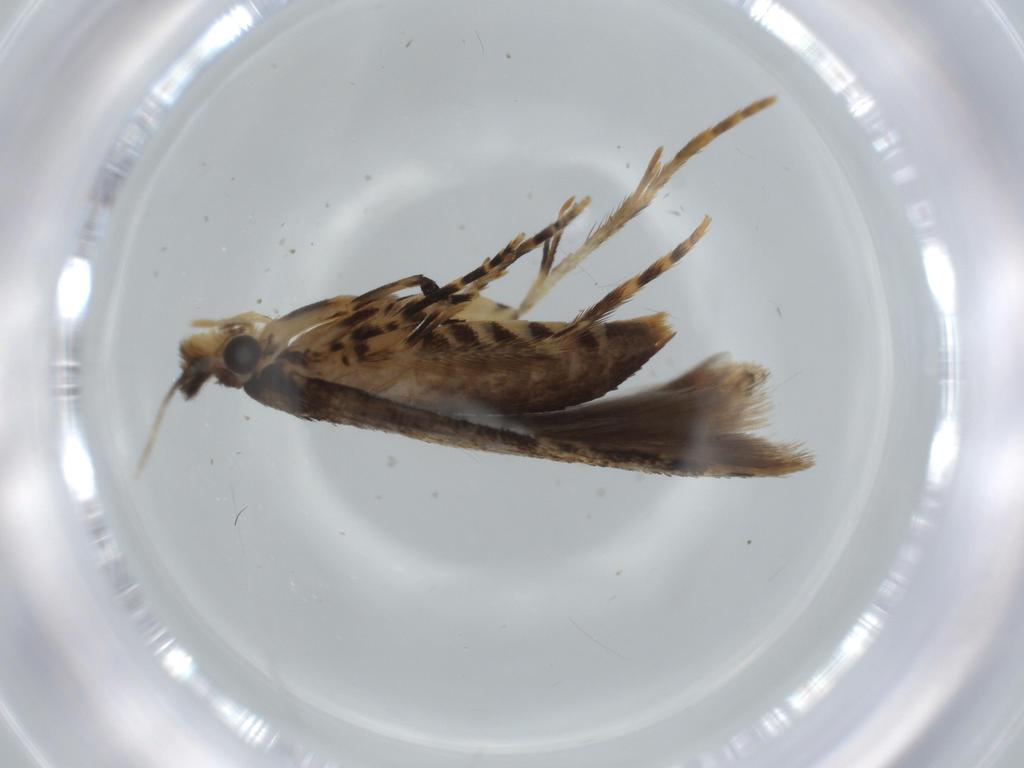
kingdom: Animalia
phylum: Arthropoda
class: Insecta
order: Lepidoptera
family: Tineidae
